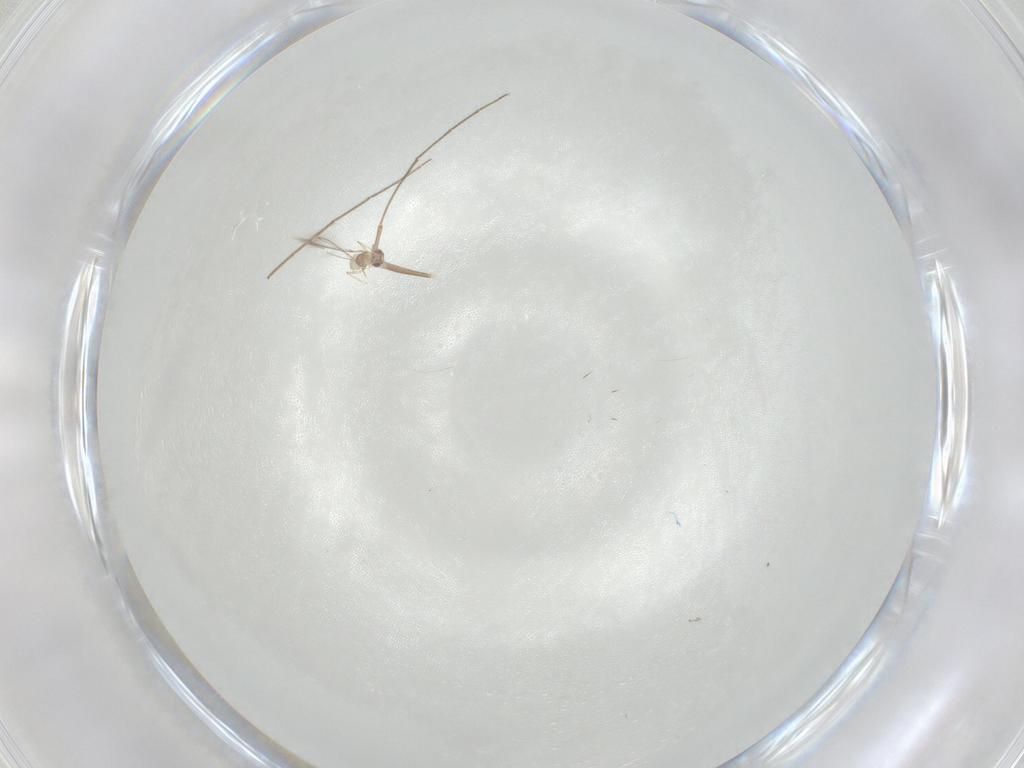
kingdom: Animalia
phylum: Arthropoda
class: Insecta
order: Hymenoptera
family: Braconidae
